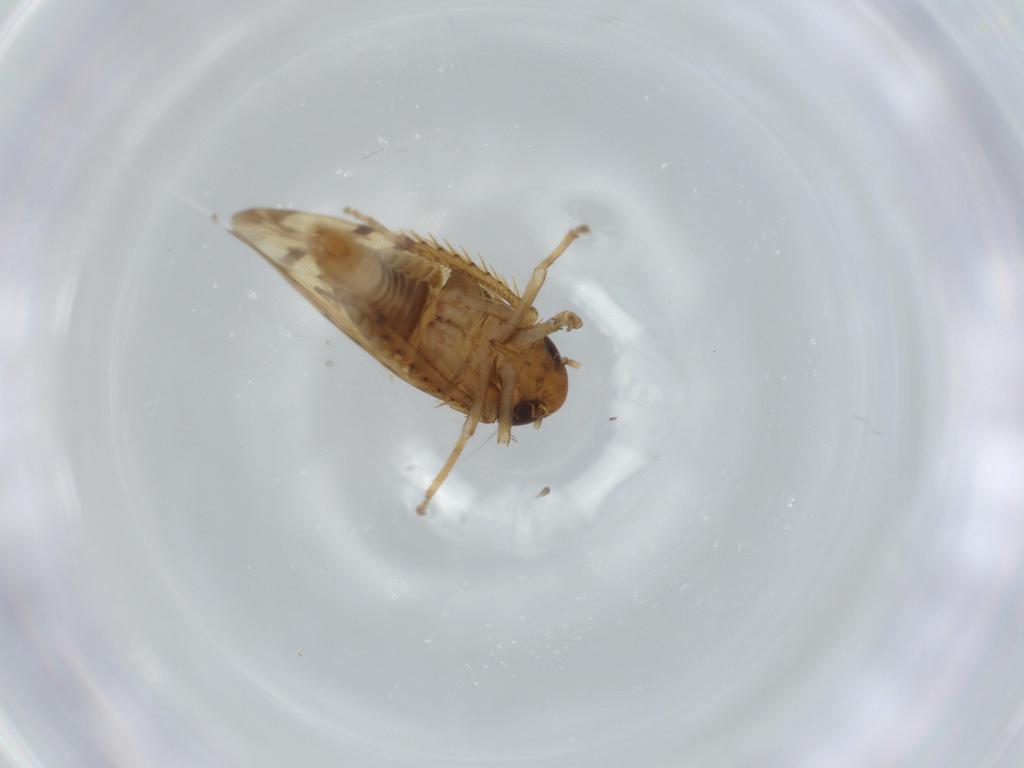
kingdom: Animalia
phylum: Arthropoda
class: Insecta
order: Hemiptera
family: Cicadellidae
